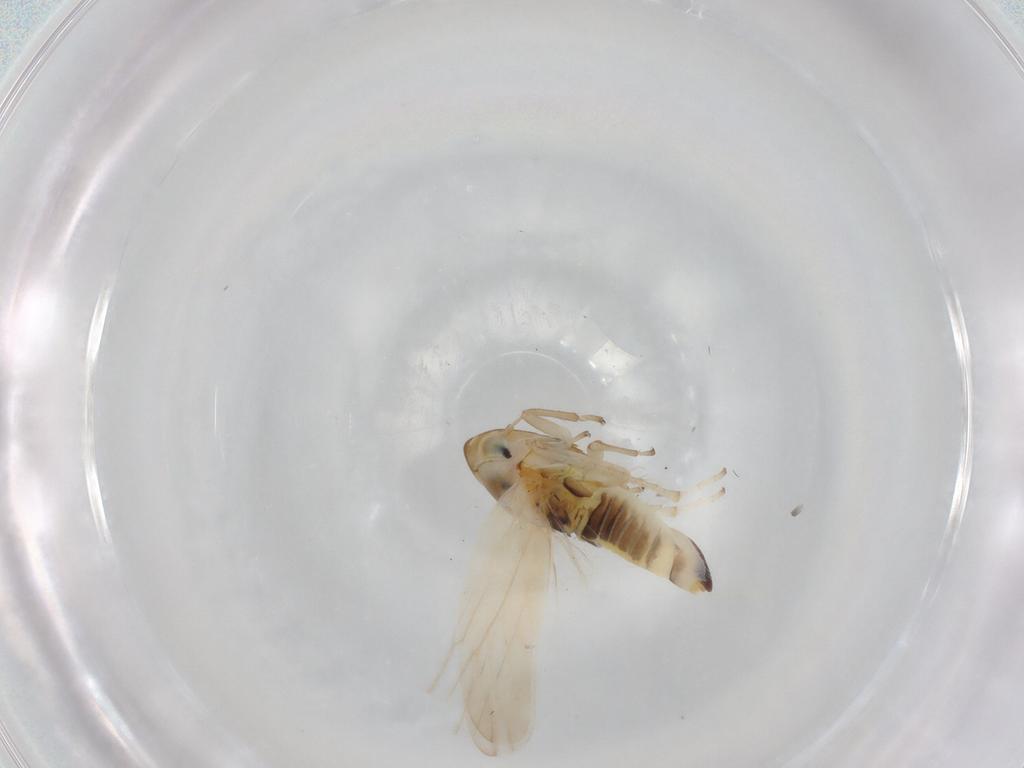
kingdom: Animalia
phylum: Arthropoda
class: Insecta
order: Hemiptera
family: Cicadellidae
